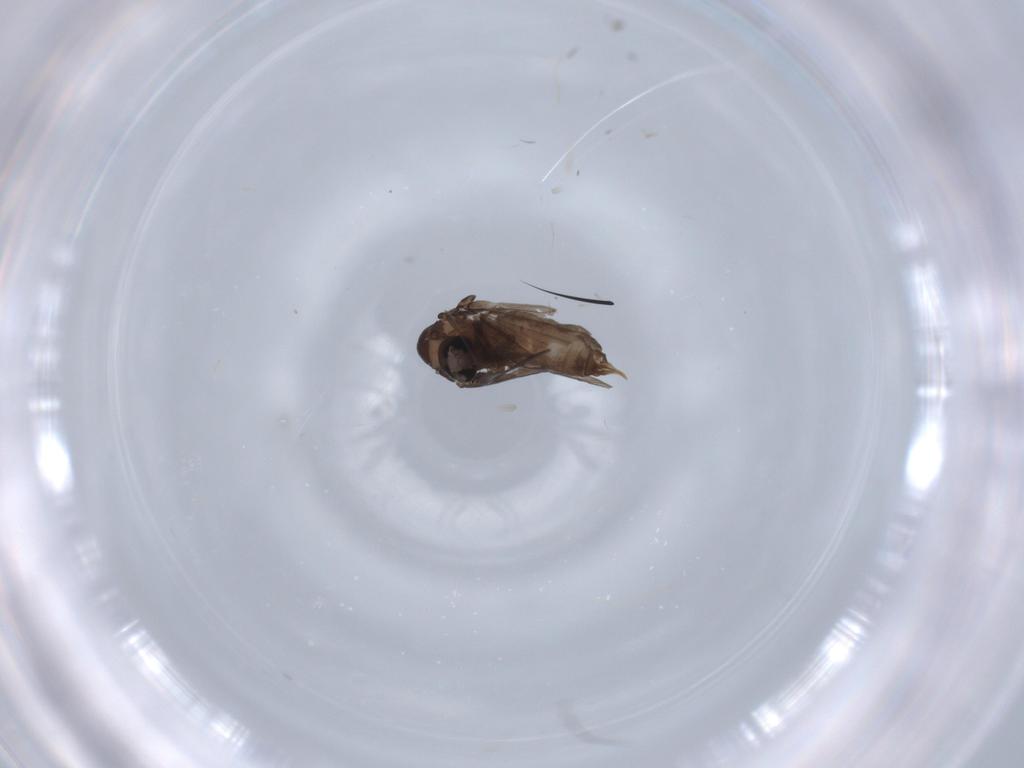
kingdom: Animalia
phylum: Arthropoda
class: Insecta
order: Diptera
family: Cecidomyiidae
